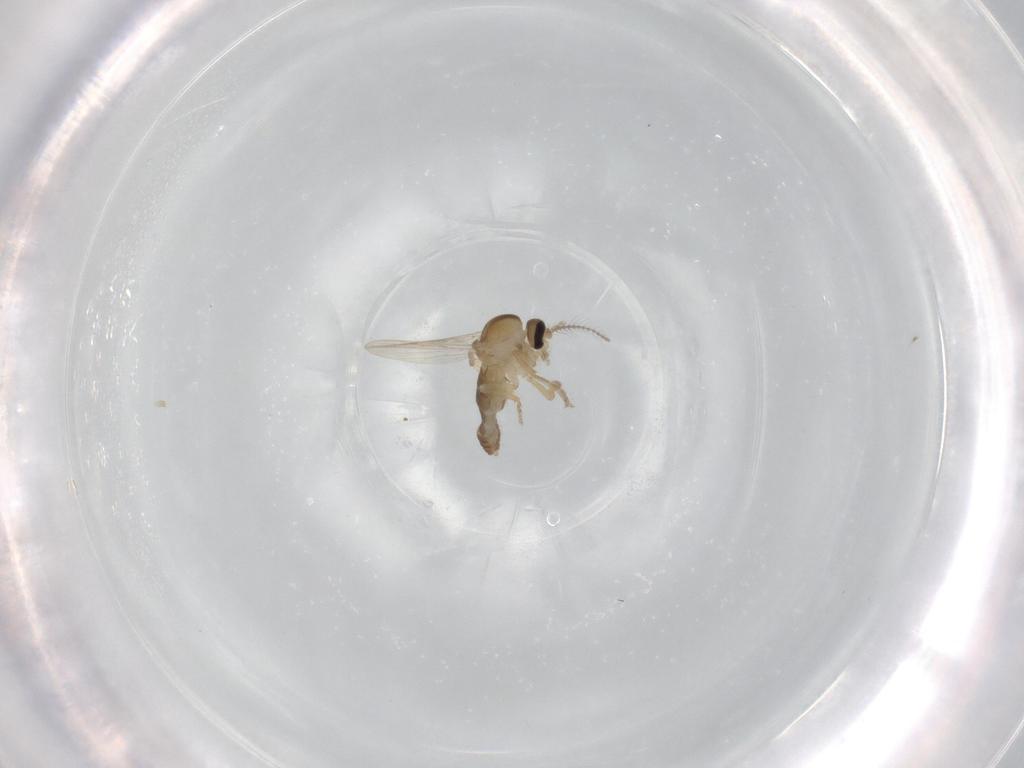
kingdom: Animalia
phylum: Arthropoda
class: Insecta
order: Diptera
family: Ceratopogonidae
